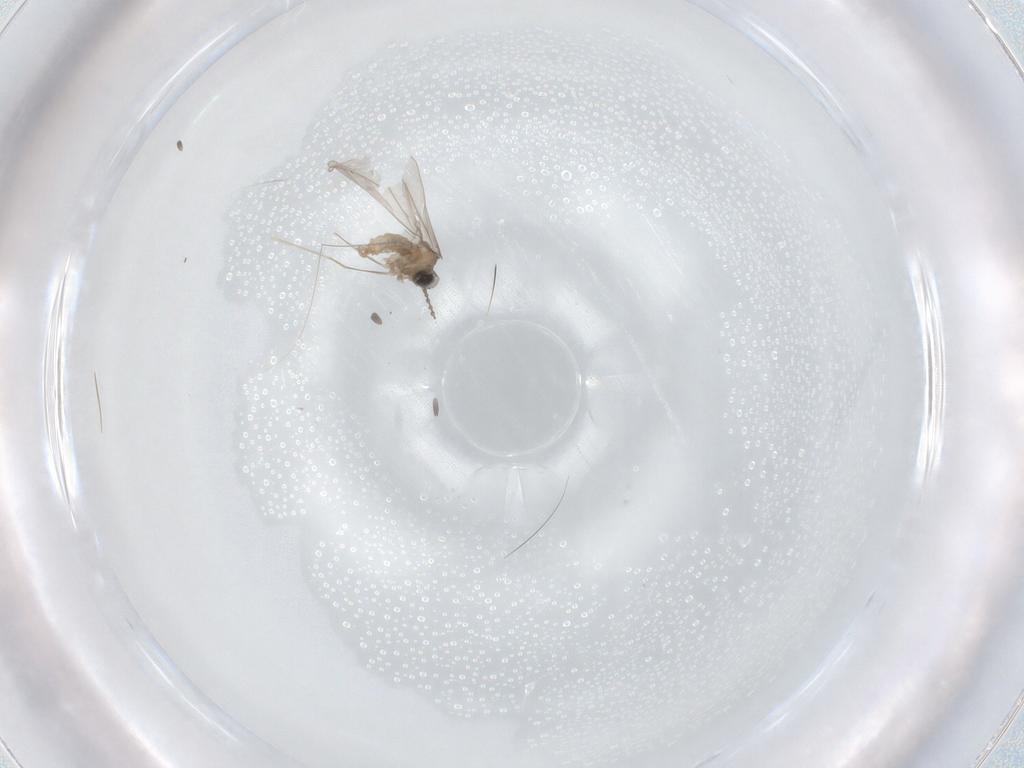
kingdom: Animalia
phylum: Arthropoda
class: Insecta
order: Diptera
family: Cecidomyiidae
